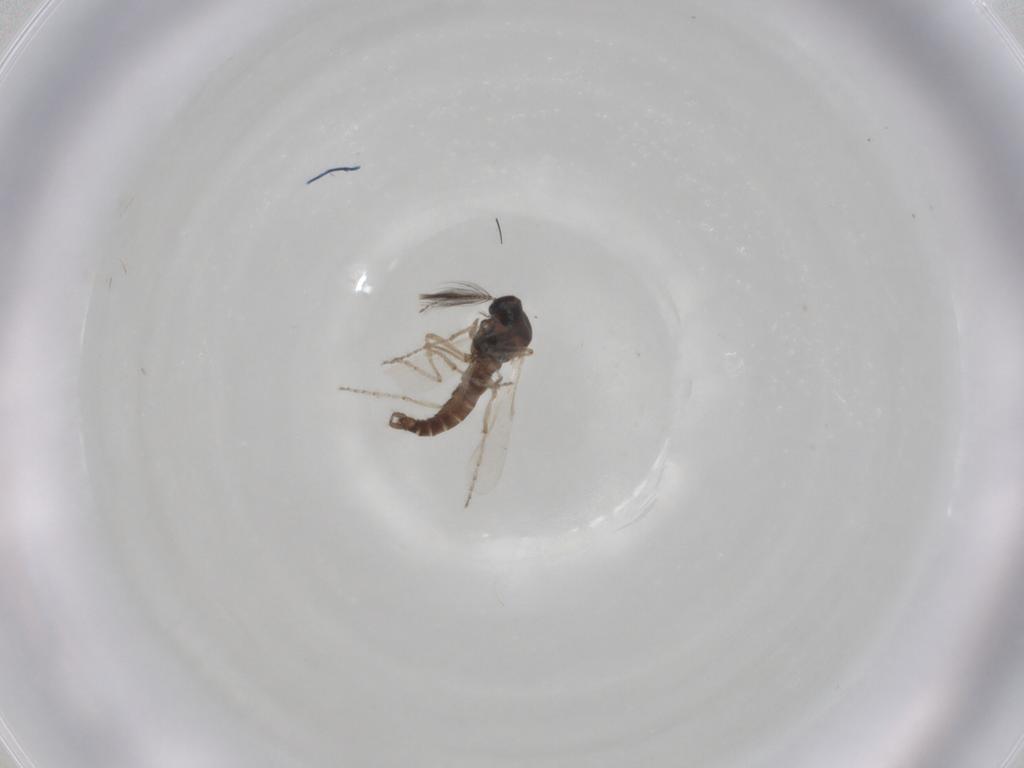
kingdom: Animalia
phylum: Arthropoda
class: Insecta
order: Diptera
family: Ceratopogonidae
